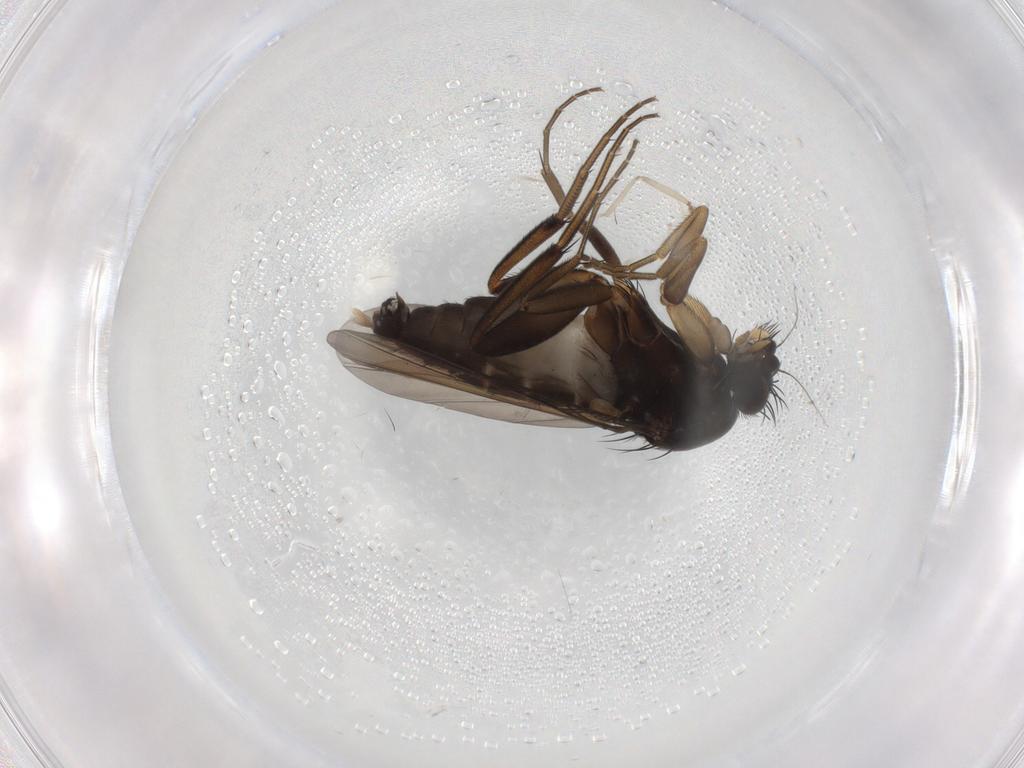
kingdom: Animalia
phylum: Arthropoda
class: Insecta
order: Diptera
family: Phoridae
